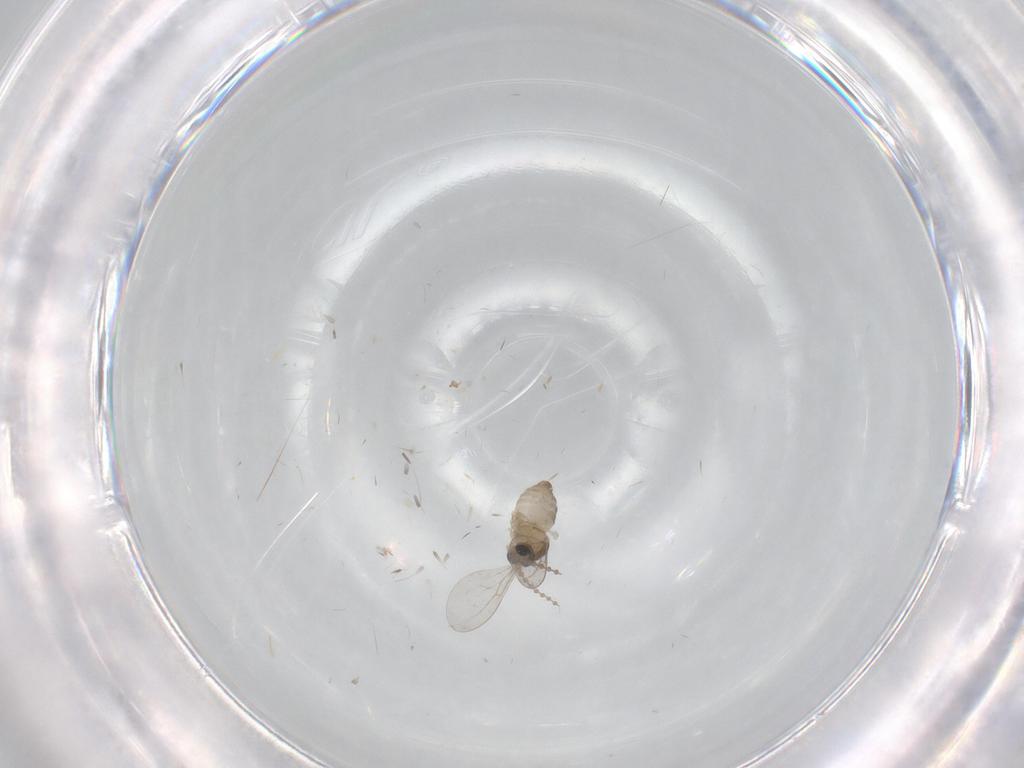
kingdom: Animalia
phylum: Arthropoda
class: Insecta
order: Diptera
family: Cecidomyiidae
